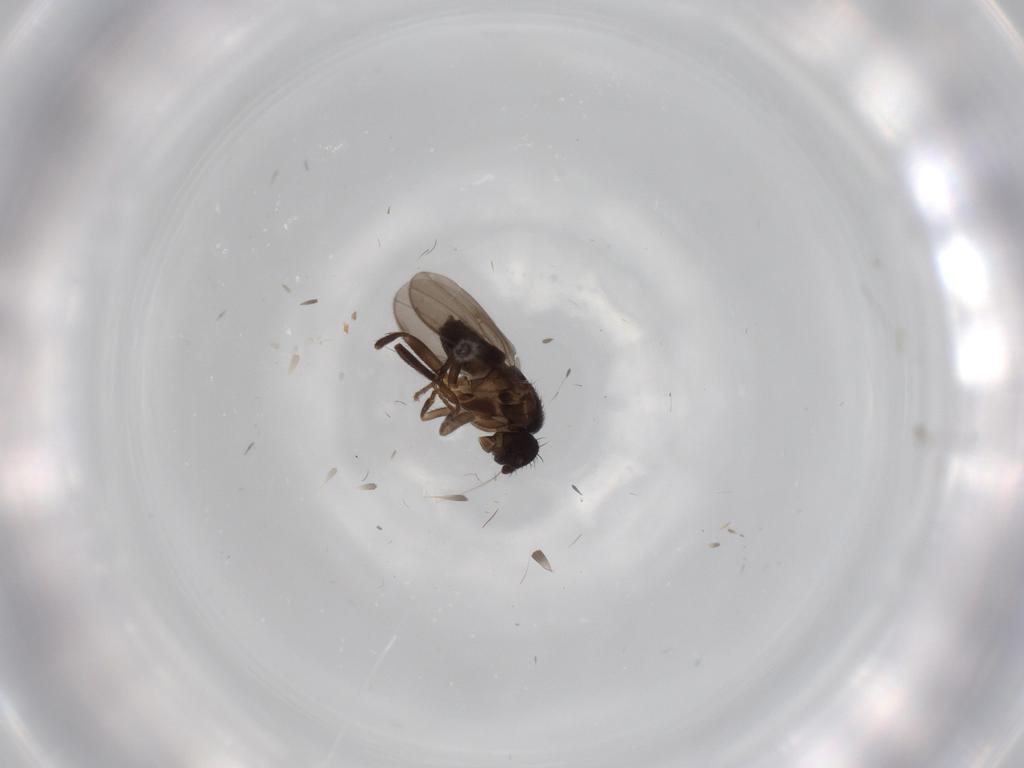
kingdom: Animalia
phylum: Arthropoda
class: Insecta
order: Diptera
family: Sphaeroceridae
